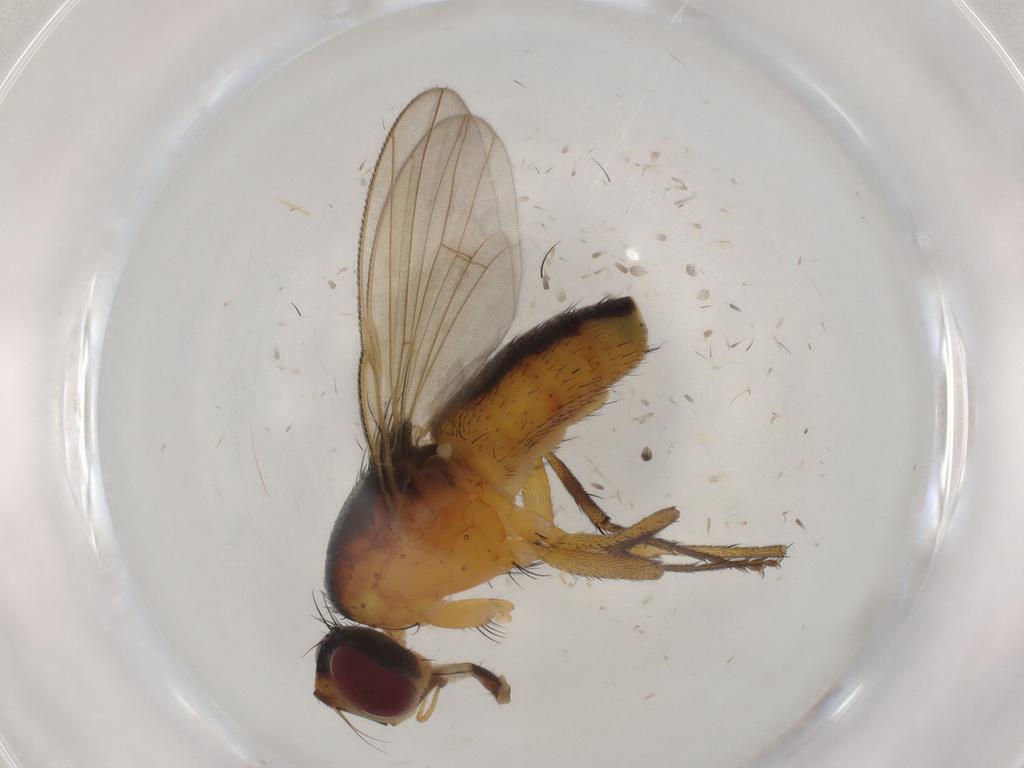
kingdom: Animalia
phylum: Arthropoda
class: Insecta
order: Diptera
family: Muscidae
